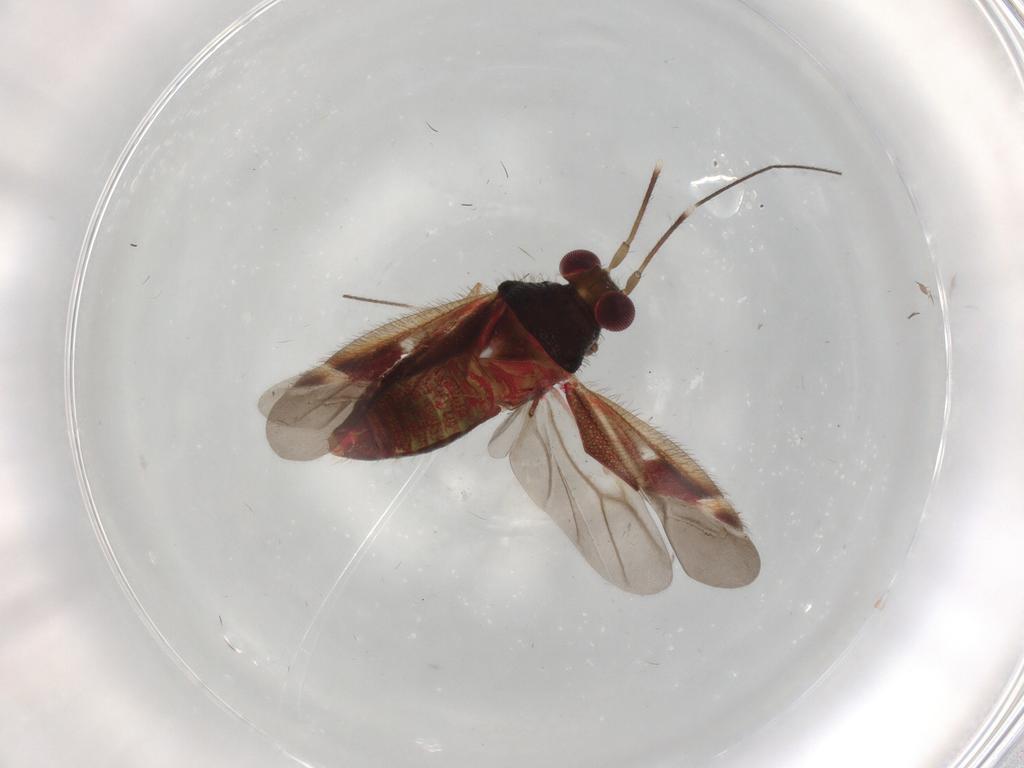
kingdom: Animalia
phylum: Arthropoda
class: Insecta
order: Hemiptera
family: Miridae
